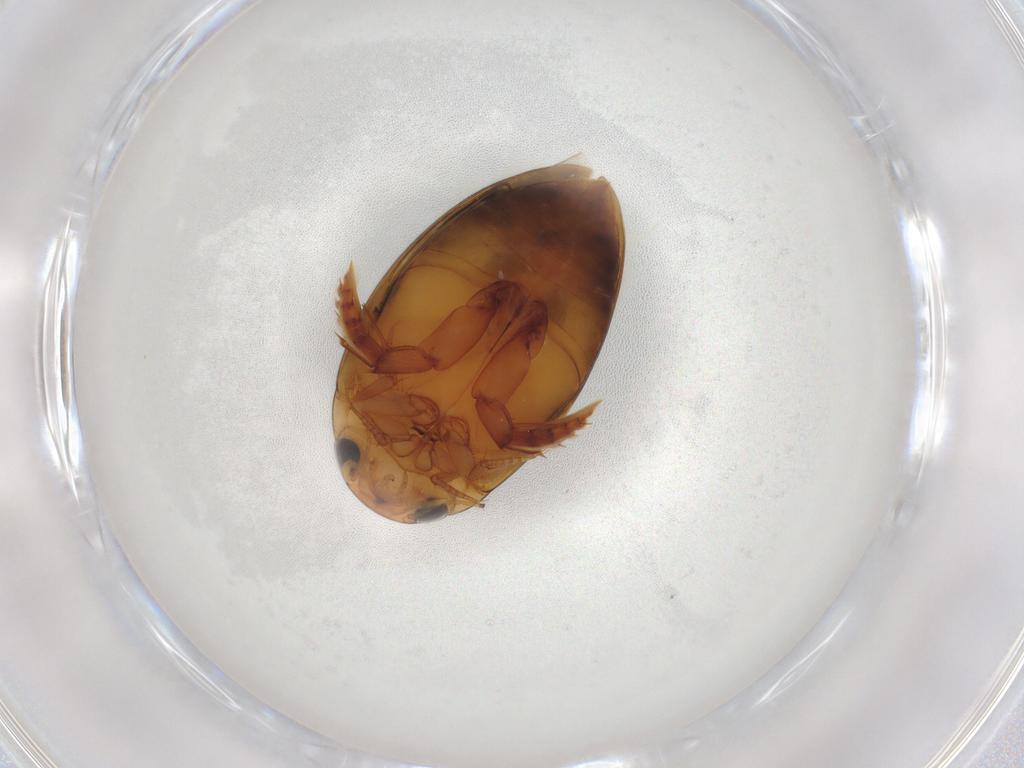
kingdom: Animalia
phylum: Arthropoda
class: Insecta
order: Coleoptera
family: Dytiscidae
